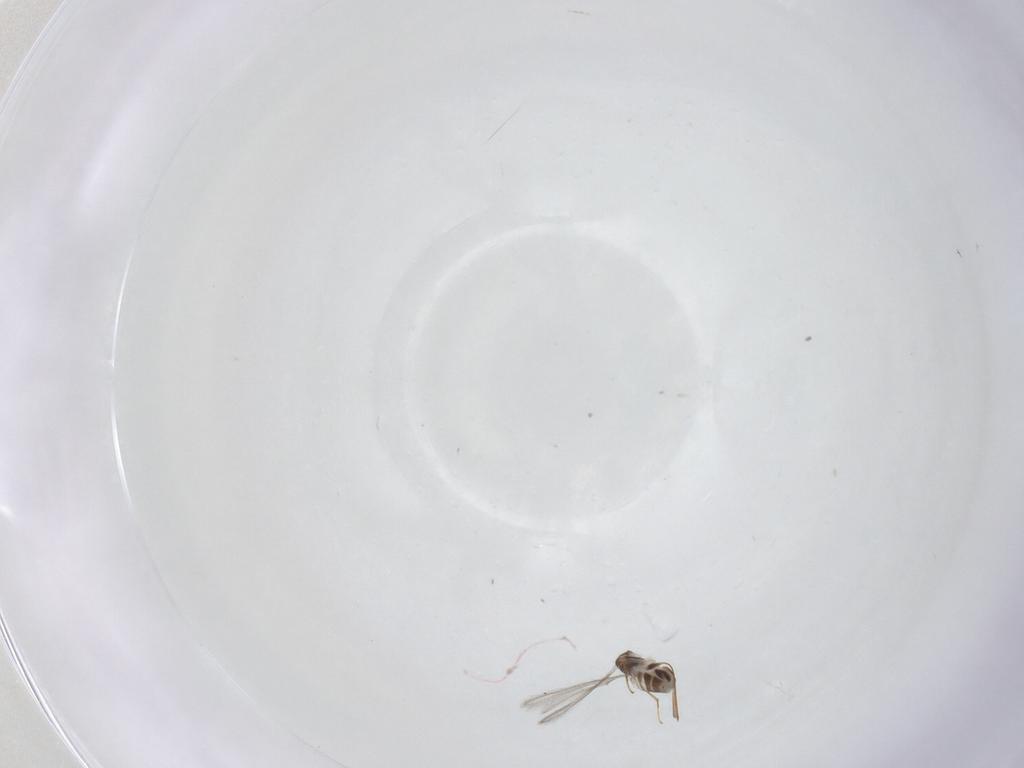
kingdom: Animalia
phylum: Arthropoda
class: Insecta
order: Hymenoptera
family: Mymaridae
